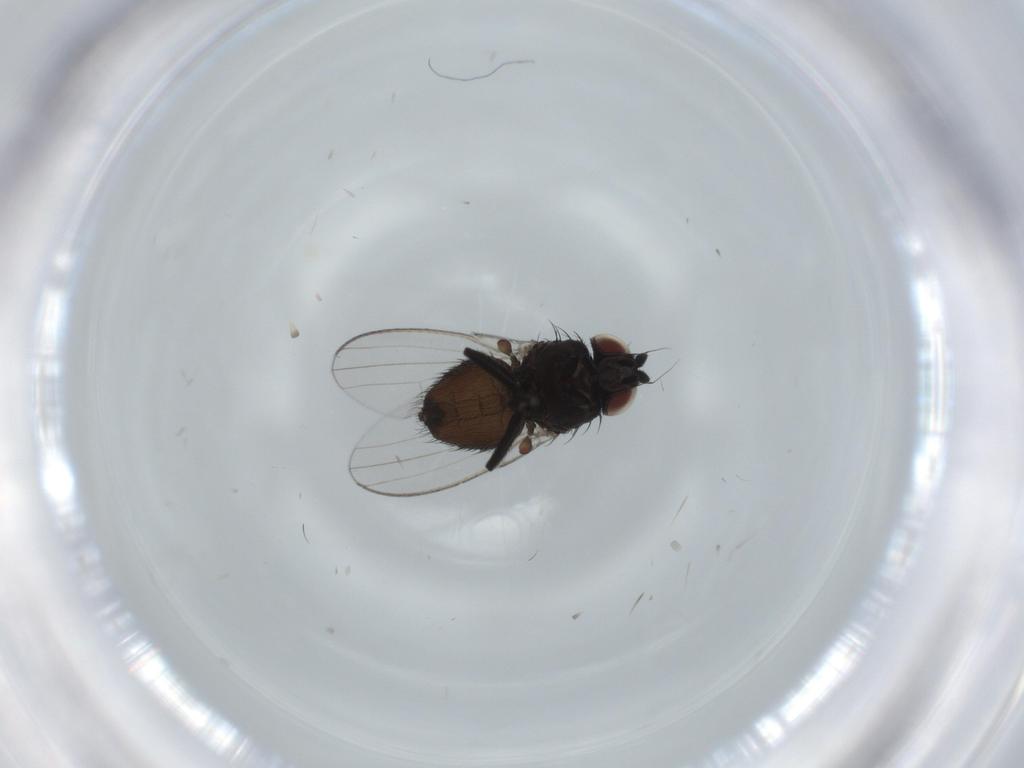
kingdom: Animalia
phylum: Arthropoda
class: Insecta
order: Diptera
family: Milichiidae
